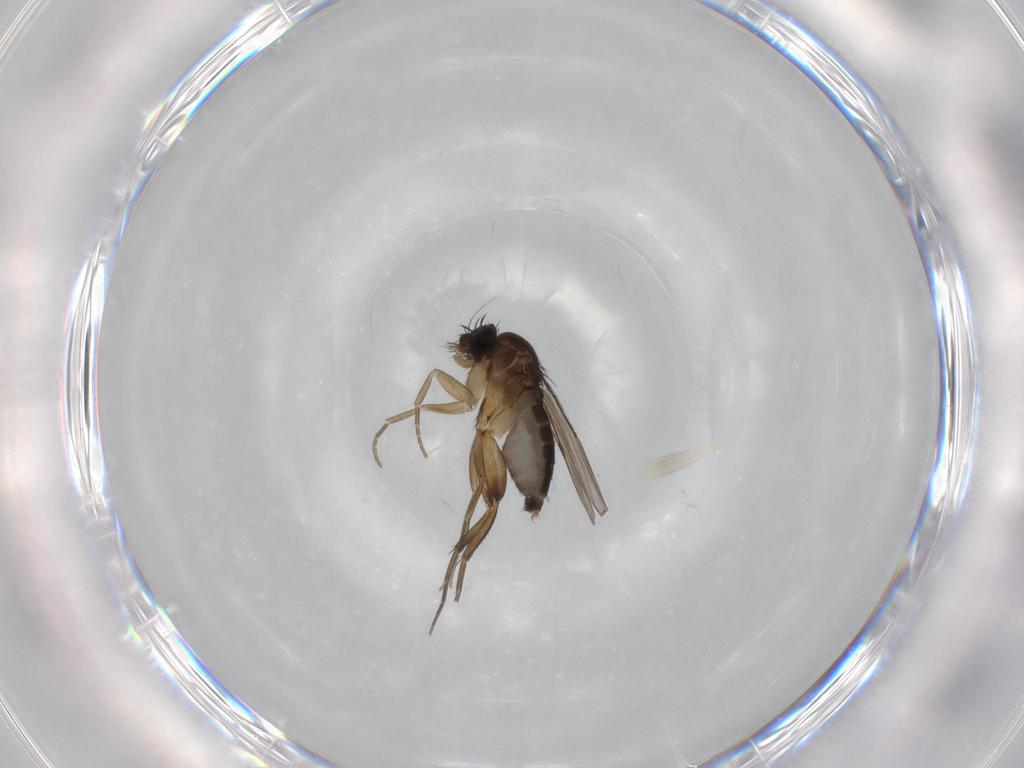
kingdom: Animalia
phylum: Arthropoda
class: Insecta
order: Diptera
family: Phoridae
